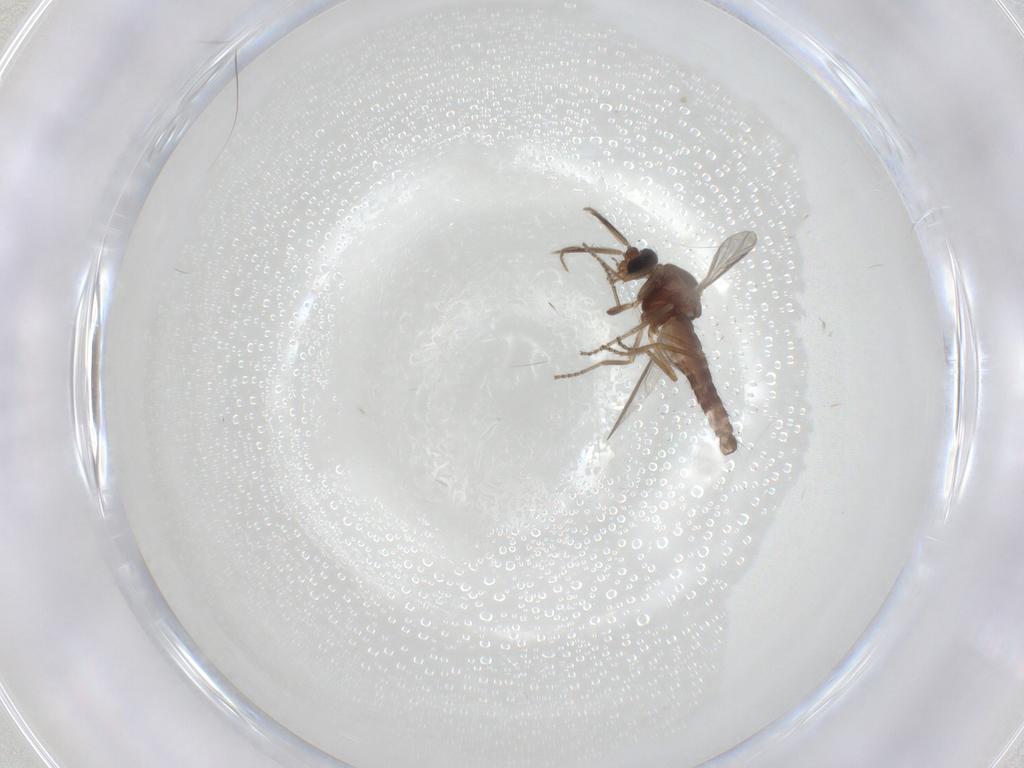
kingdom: Animalia
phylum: Arthropoda
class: Insecta
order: Diptera
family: Ceratopogonidae
